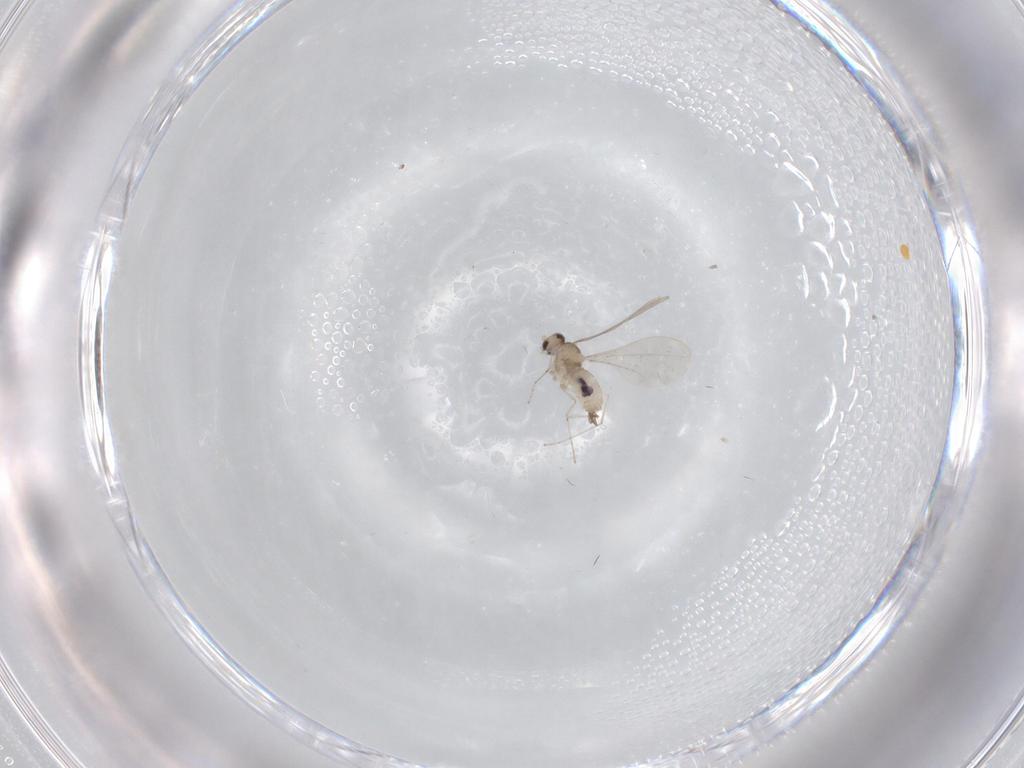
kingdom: Animalia
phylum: Arthropoda
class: Insecta
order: Diptera
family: Cecidomyiidae
